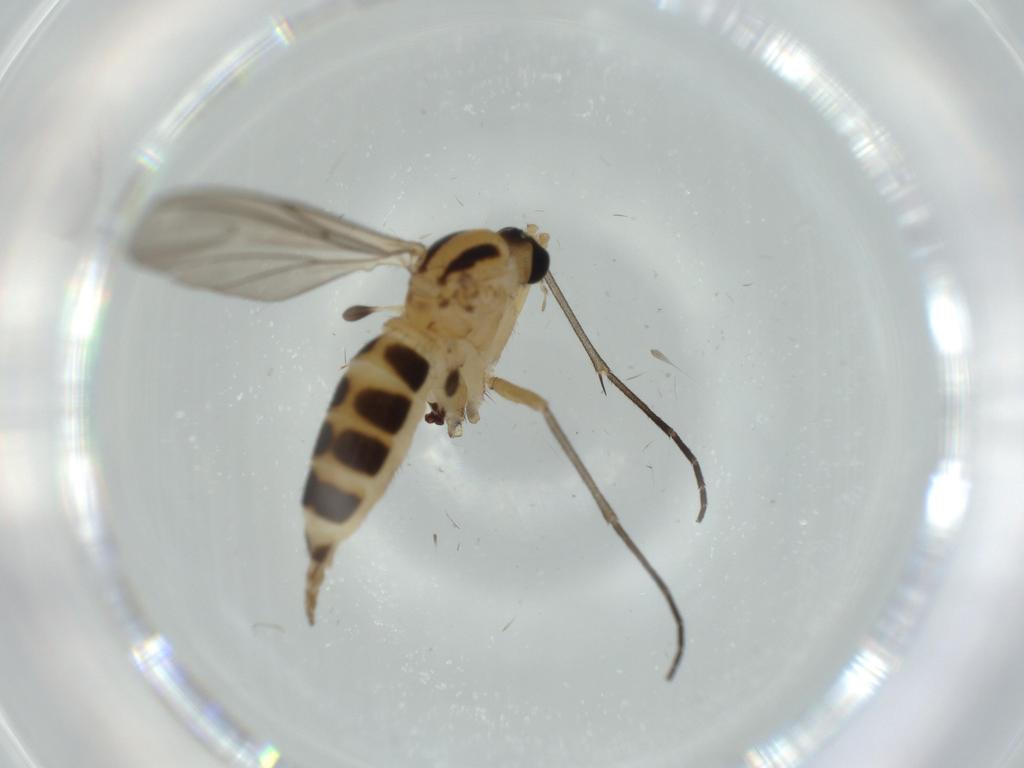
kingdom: Animalia
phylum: Arthropoda
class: Insecta
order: Diptera
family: Sciaridae
